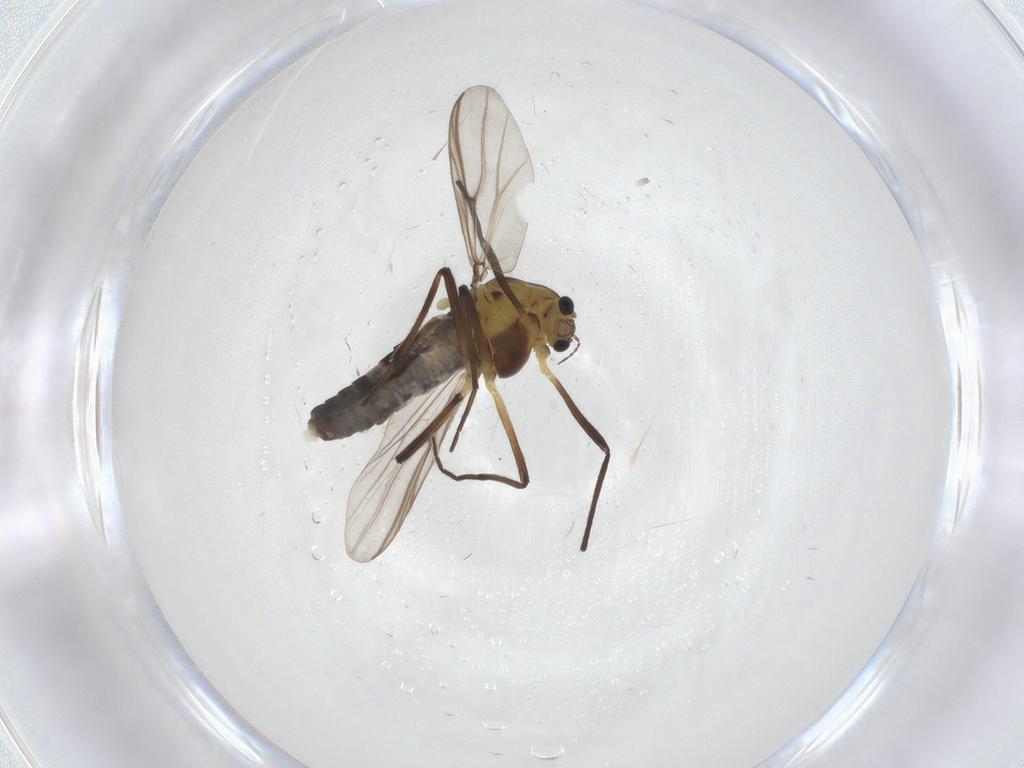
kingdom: Animalia
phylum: Arthropoda
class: Insecta
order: Diptera
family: Chironomidae
